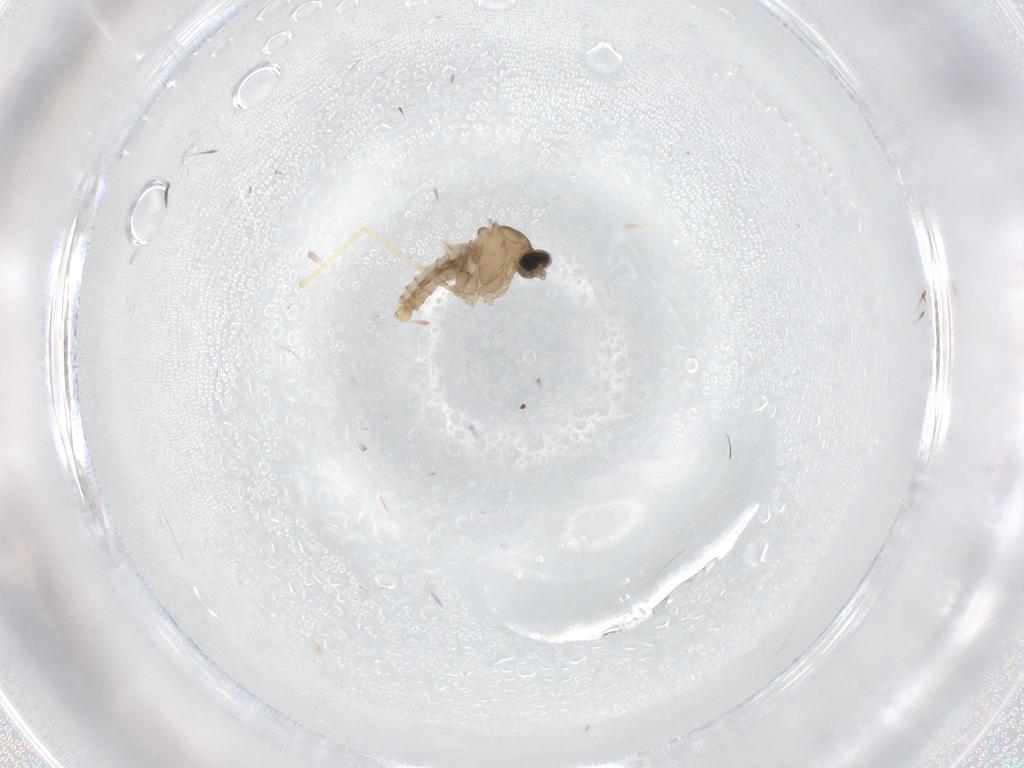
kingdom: Animalia
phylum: Arthropoda
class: Insecta
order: Diptera
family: Cecidomyiidae
